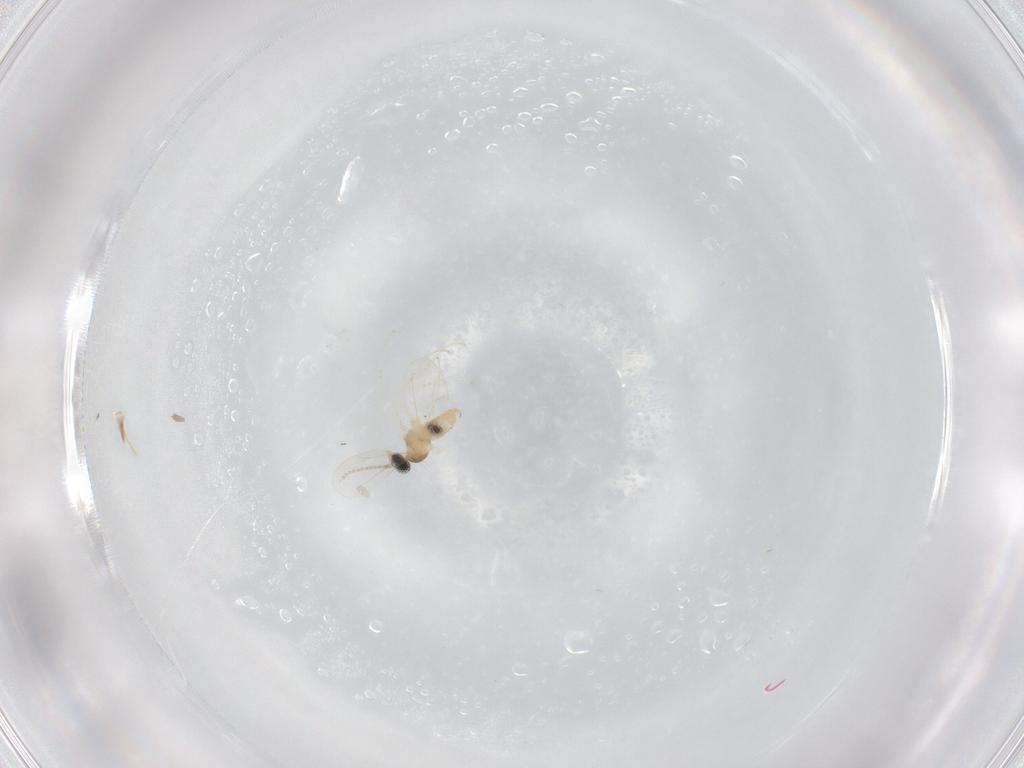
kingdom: Animalia
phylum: Arthropoda
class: Insecta
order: Diptera
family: Cecidomyiidae
